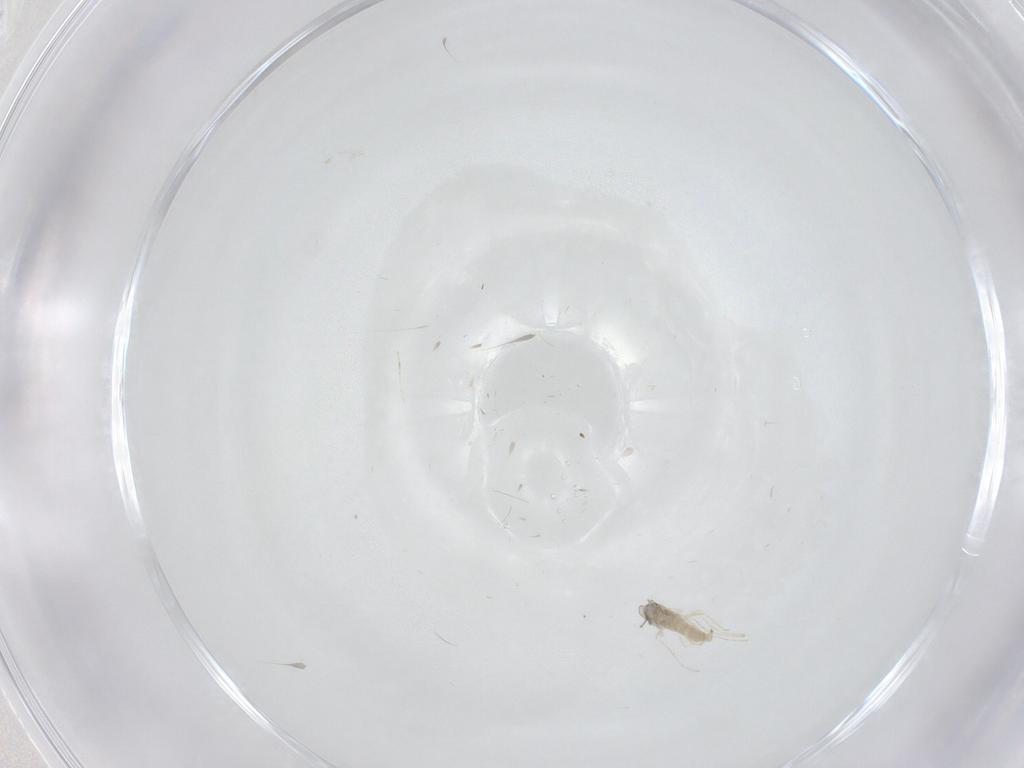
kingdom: Animalia
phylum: Arthropoda
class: Insecta
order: Diptera
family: Cecidomyiidae
